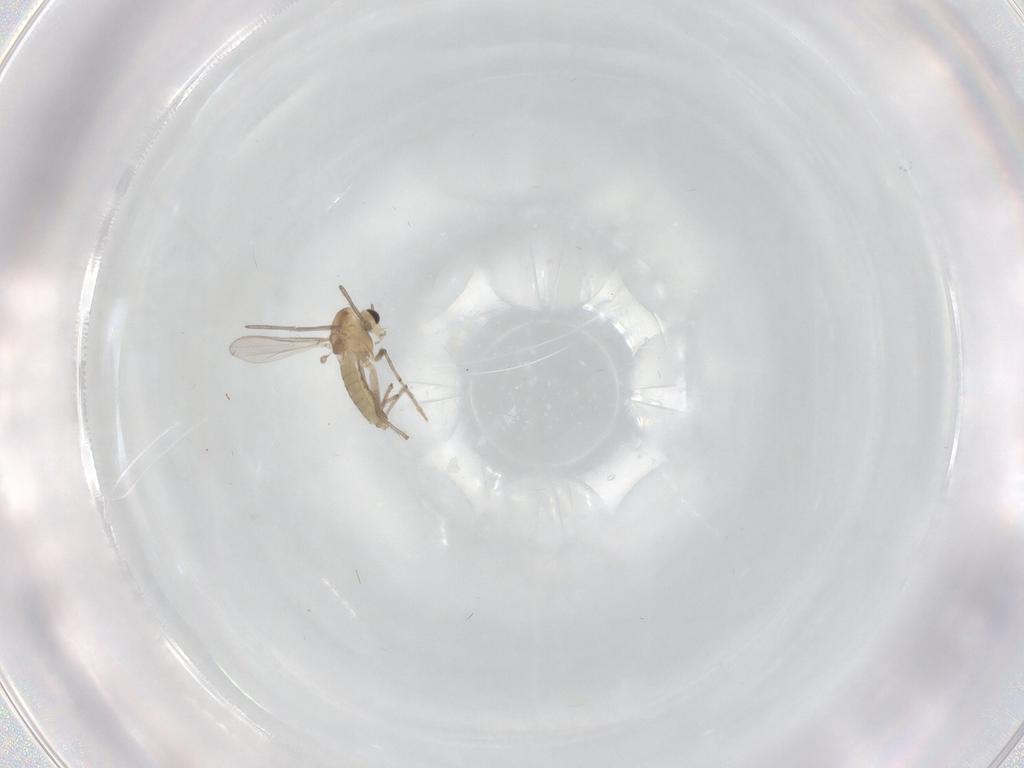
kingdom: Animalia
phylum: Arthropoda
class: Insecta
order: Diptera
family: Chironomidae
